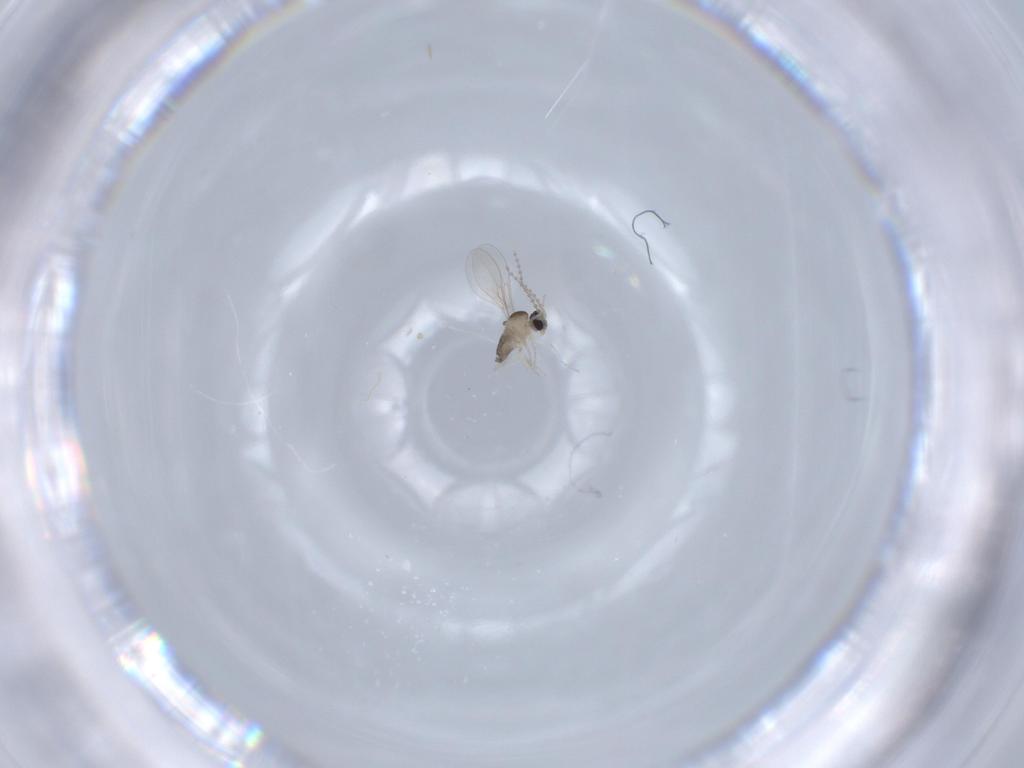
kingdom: Animalia
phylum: Arthropoda
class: Insecta
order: Diptera
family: Cecidomyiidae
